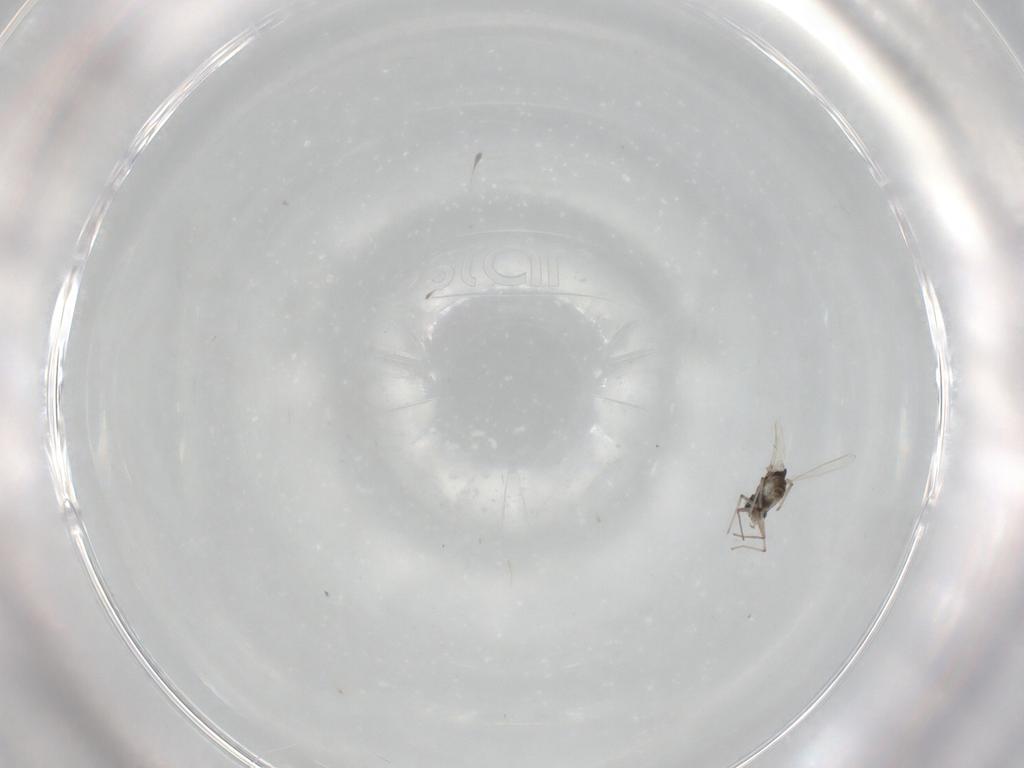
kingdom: Animalia
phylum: Arthropoda
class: Insecta
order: Diptera
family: Chironomidae
